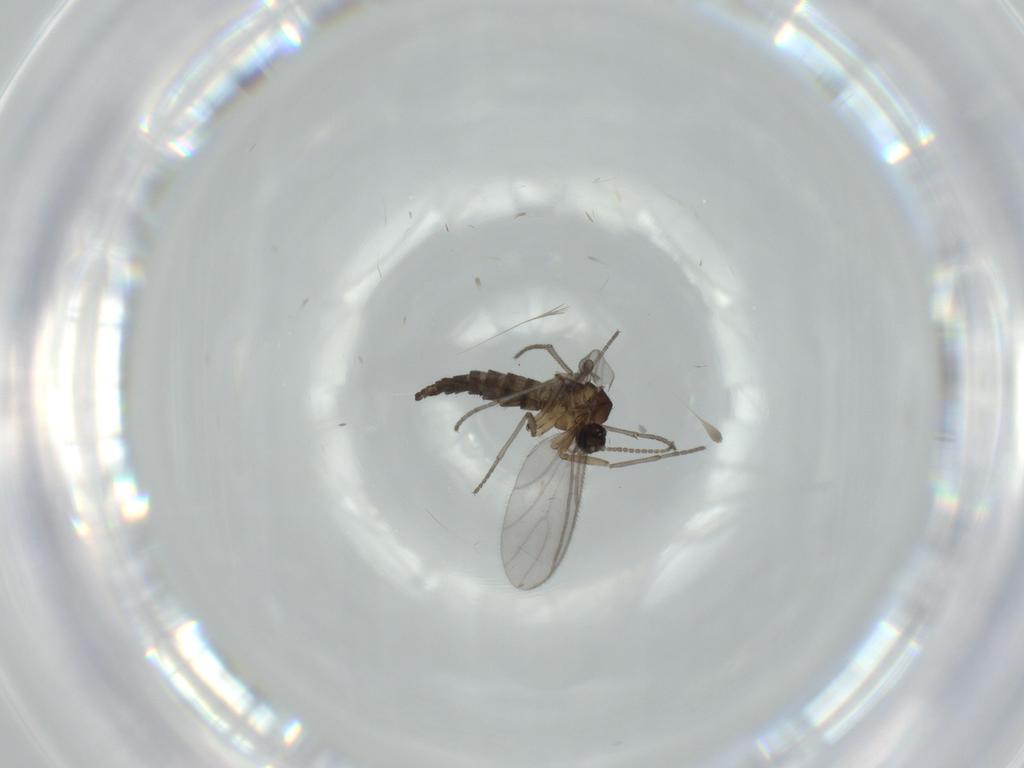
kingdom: Animalia
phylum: Arthropoda
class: Insecta
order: Diptera
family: Sciaridae
